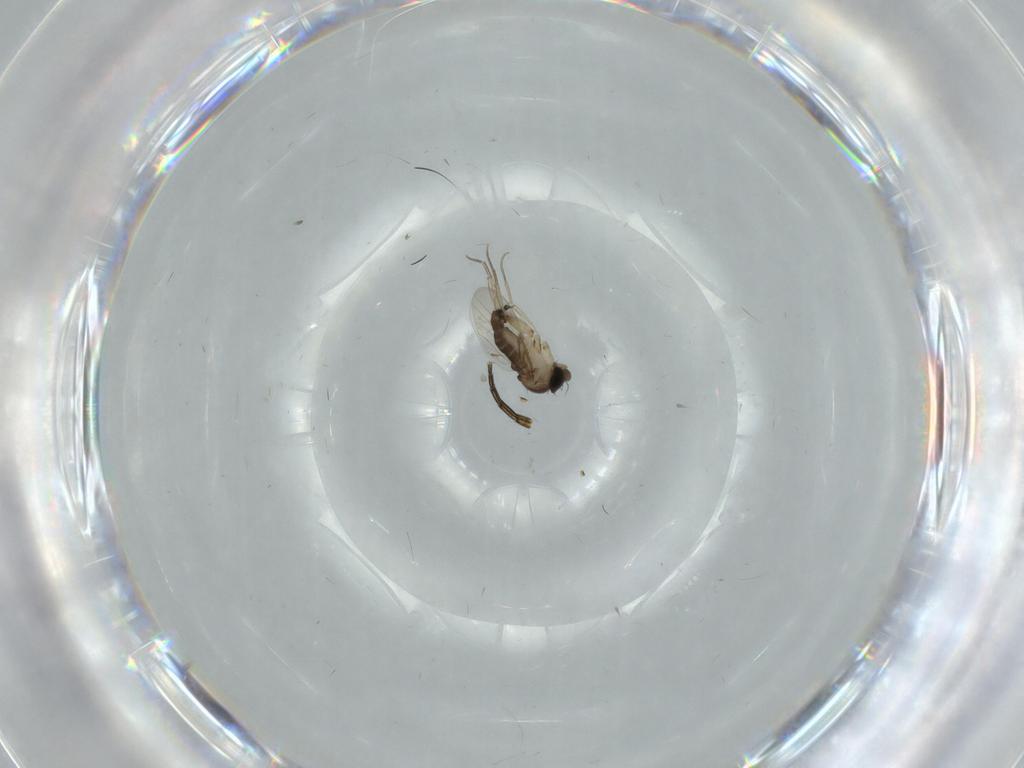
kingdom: Animalia
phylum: Arthropoda
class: Insecta
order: Diptera
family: Phoridae
